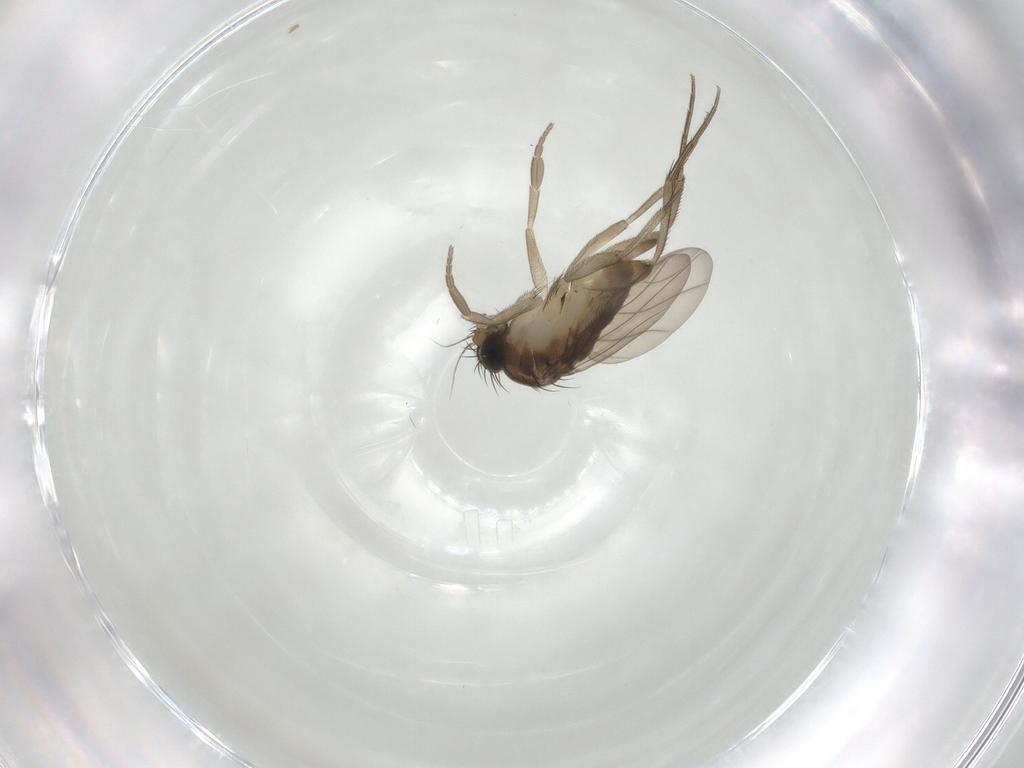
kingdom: Animalia
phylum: Arthropoda
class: Insecta
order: Diptera
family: Phoridae
